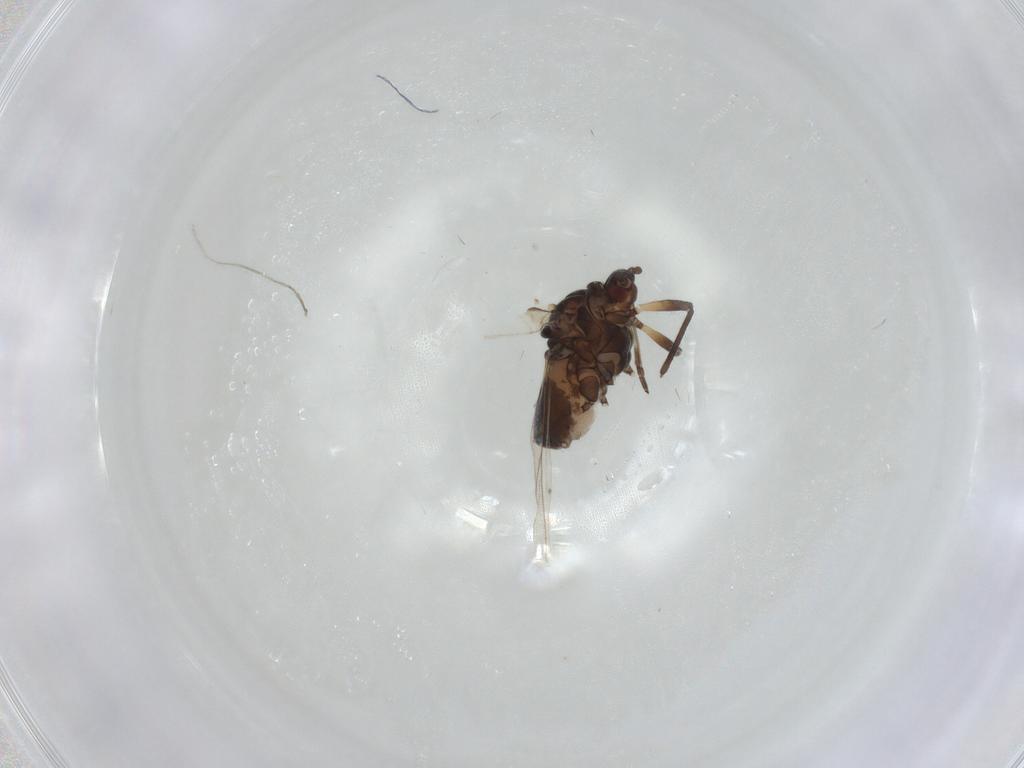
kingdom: Animalia
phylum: Arthropoda
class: Insecta
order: Hemiptera
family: Aphididae
